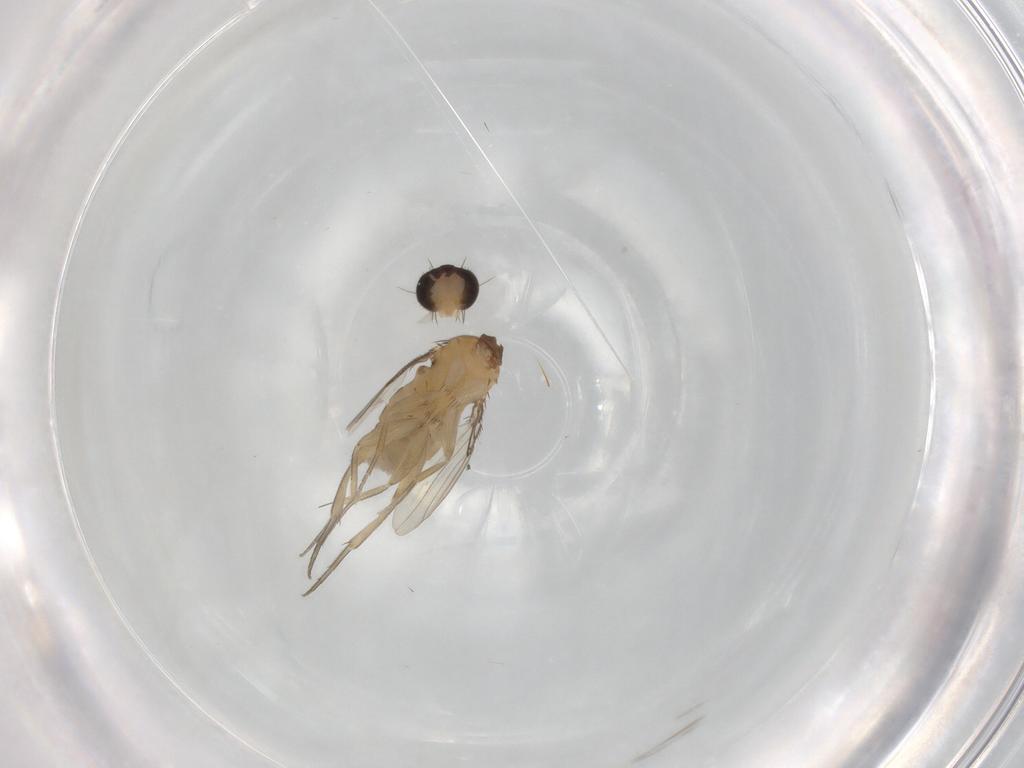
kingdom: Animalia
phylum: Arthropoda
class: Insecta
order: Diptera
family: Phoridae
